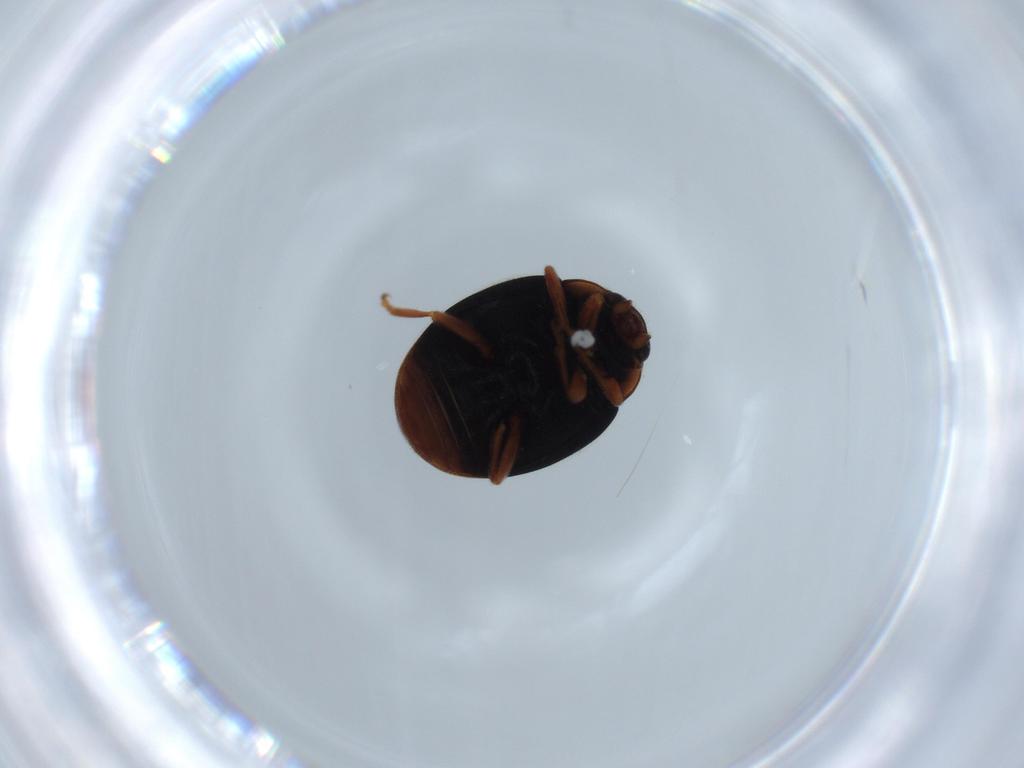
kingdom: Animalia
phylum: Arthropoda
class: Insecta
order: Coleoptera
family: Coccinellidae
